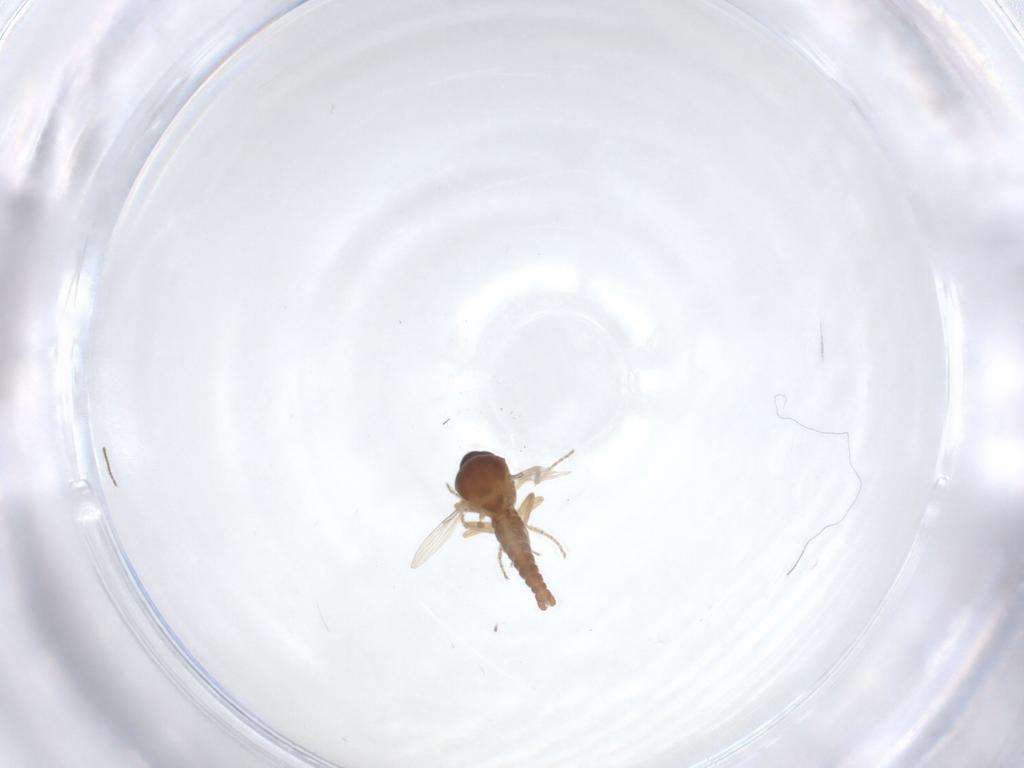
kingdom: Animalia
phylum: Arthropoda
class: Insecta
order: Diptera
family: Ceratopogonidae
